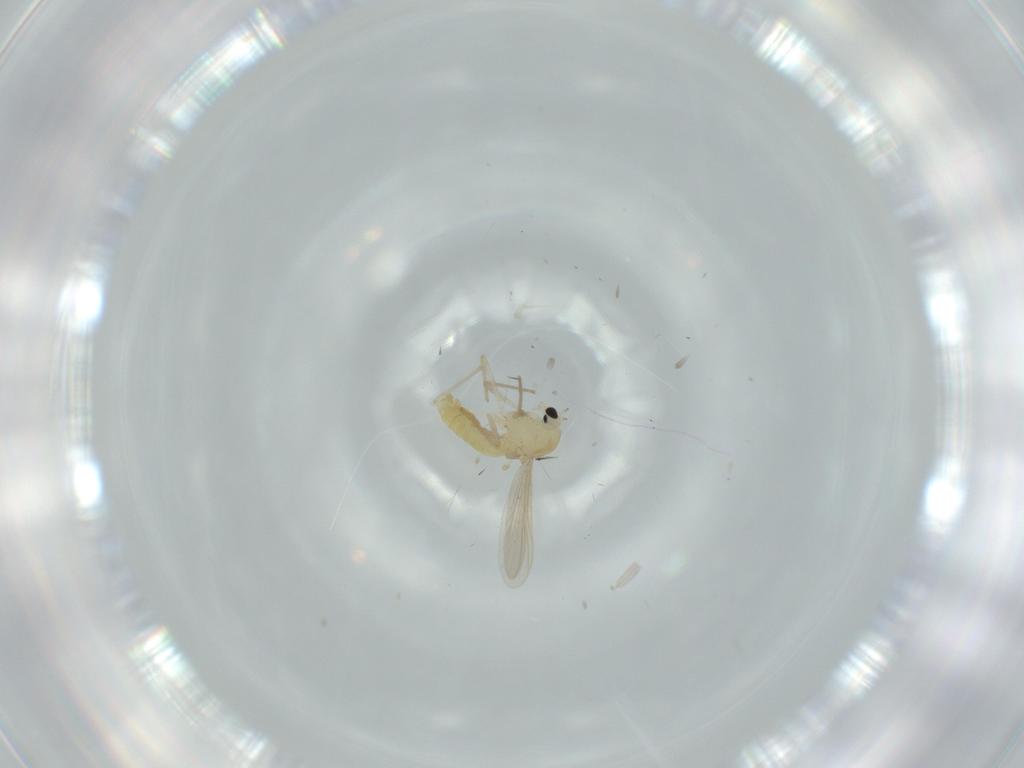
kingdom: Animalia
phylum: Arthropoda
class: Insecta
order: Diptera
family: Chironomidae
